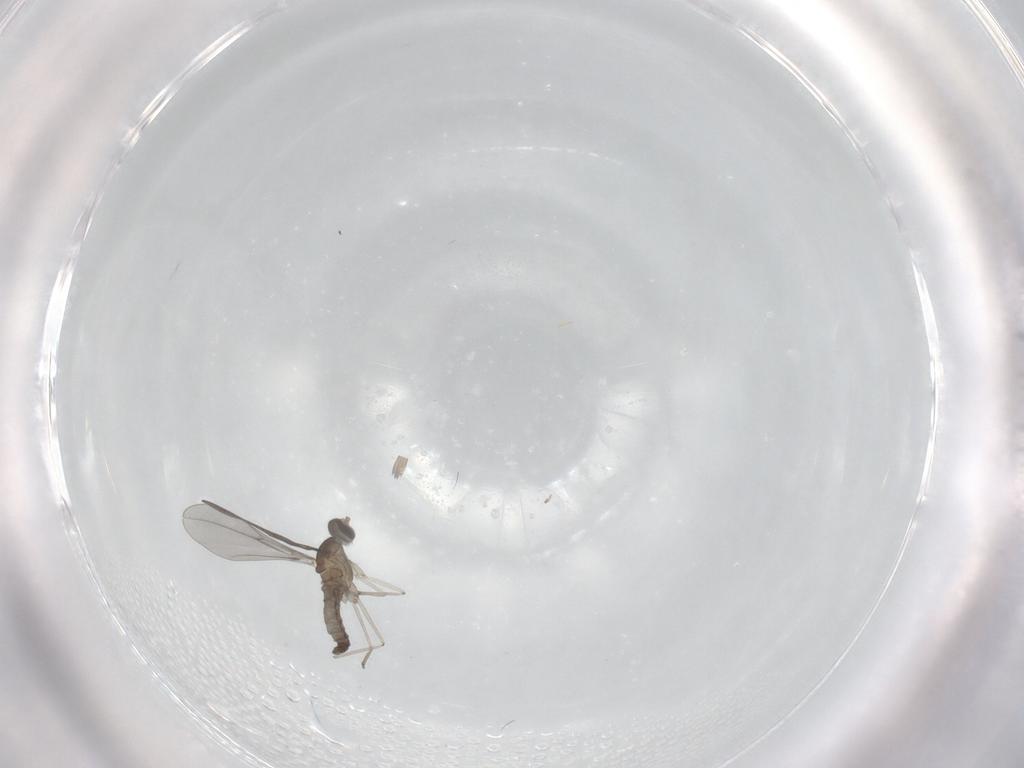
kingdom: Animalia
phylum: Arthropoda
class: Insecta
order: Diptera
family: Cecidomyiidae
